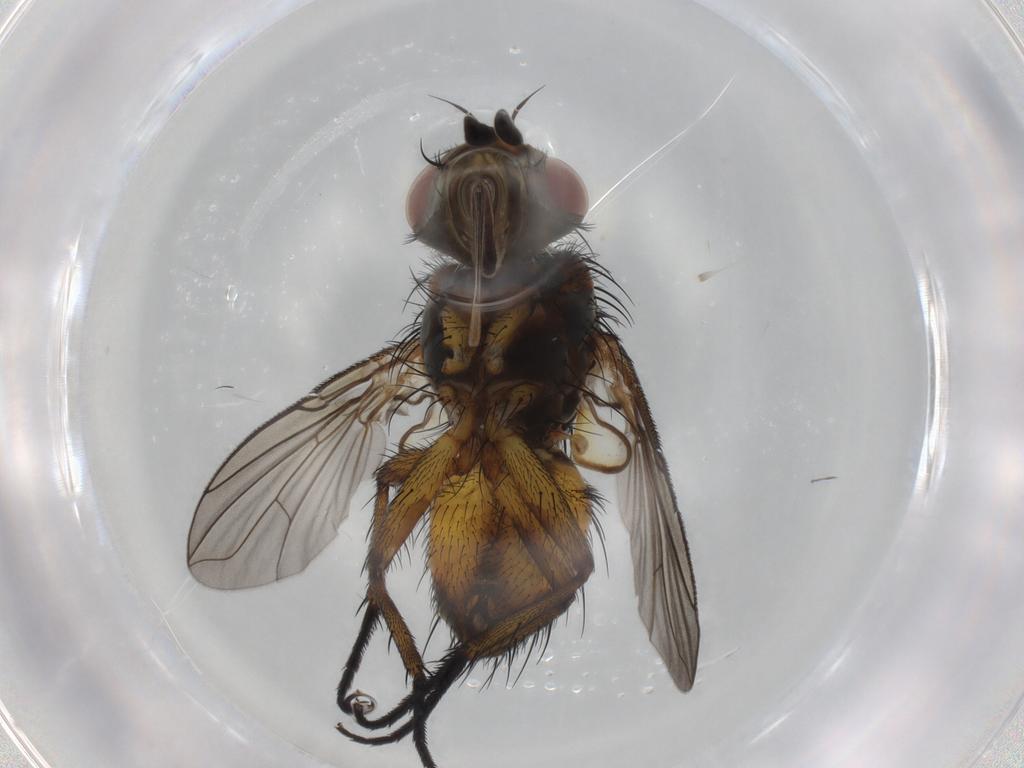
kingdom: Animalia
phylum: Arthropoda
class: Insecta
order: Diptera
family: Tachinidae
